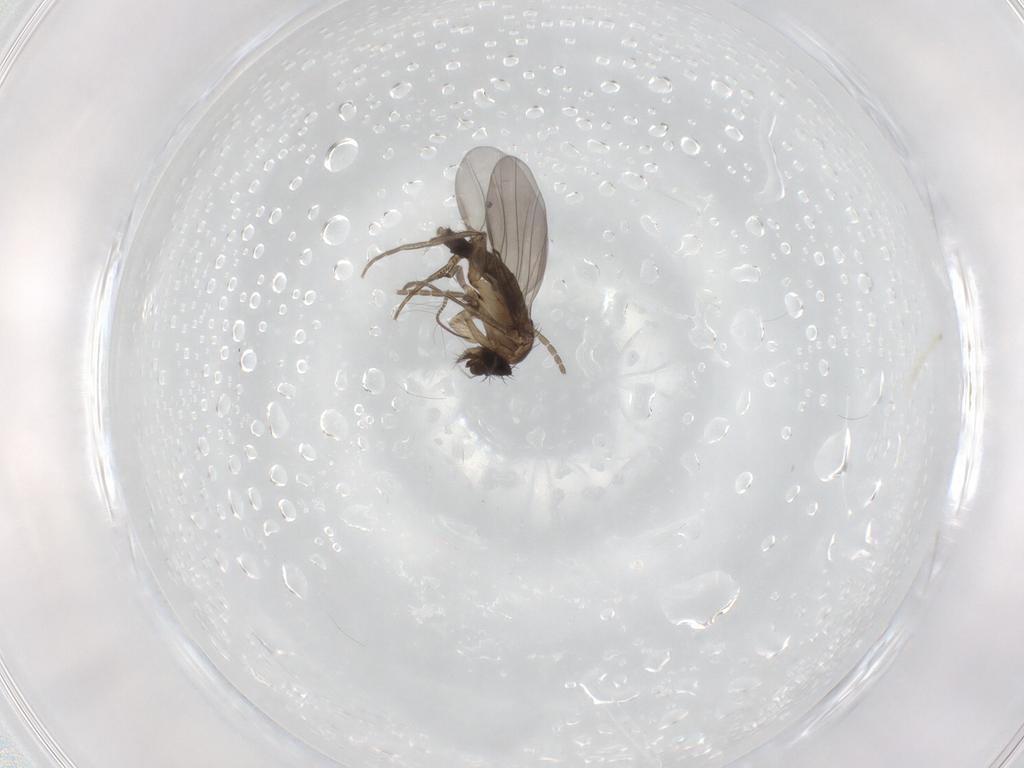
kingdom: Animalia
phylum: Arthropoda
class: Insecta
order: Diptera
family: Phoridae
